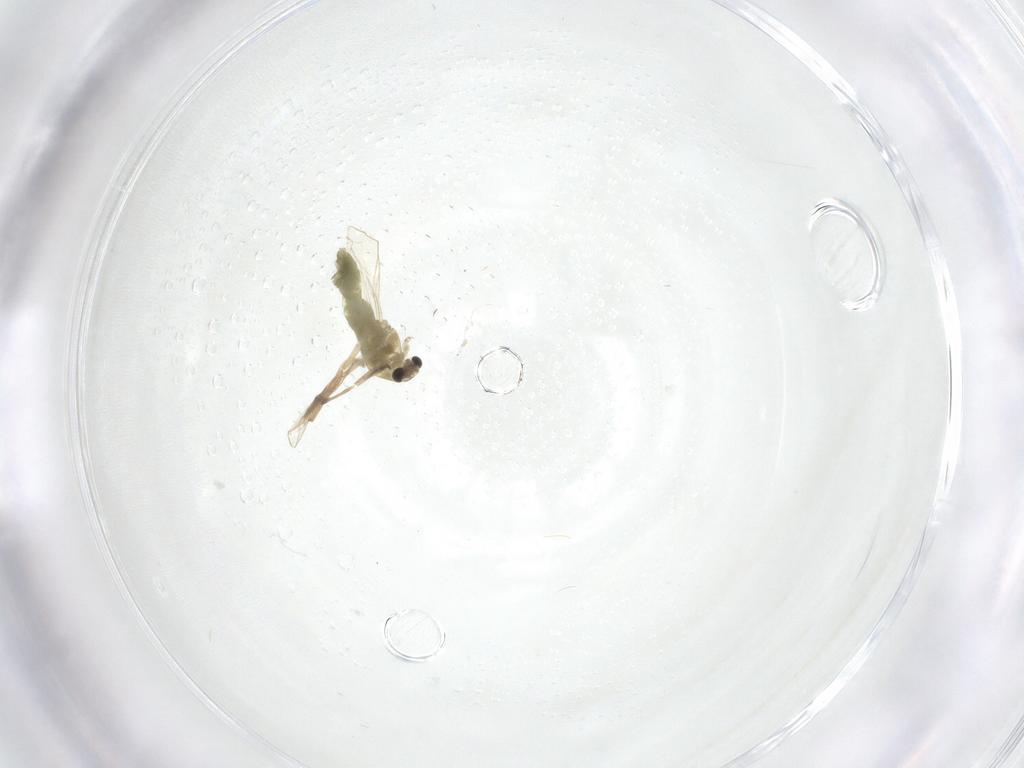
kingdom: Animalia
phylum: Arthropoda
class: Insecta
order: Diptera
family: Chironomidae
